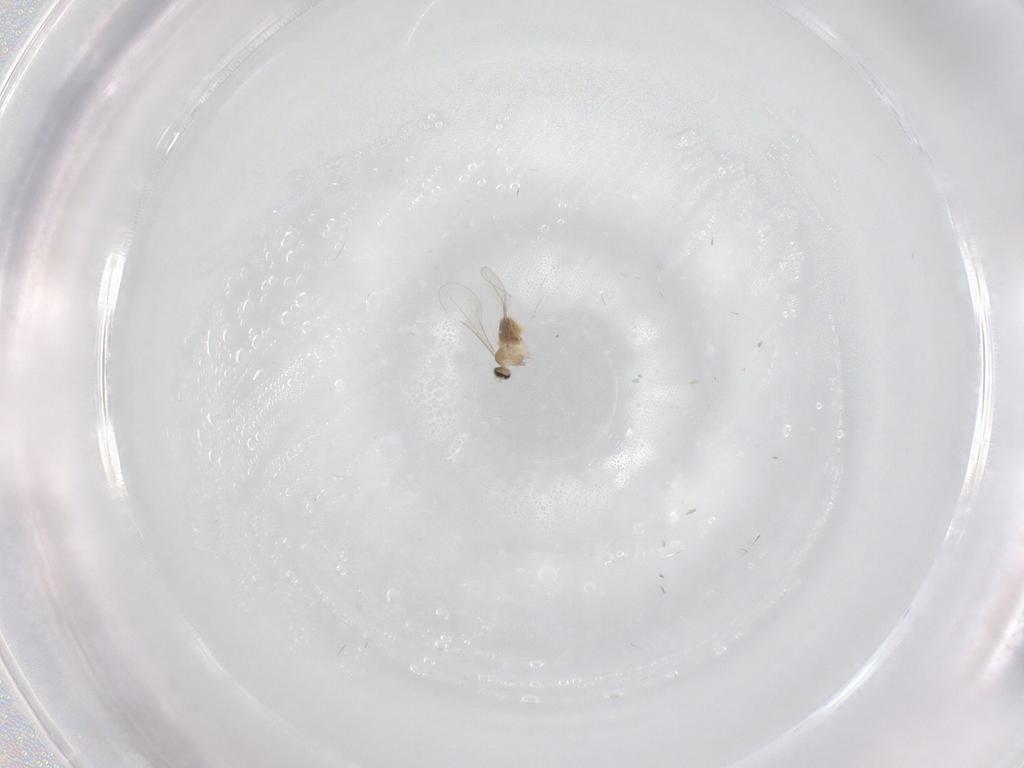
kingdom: Animalia
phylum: Arthropoda
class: Insecta
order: Diptera
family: Cecidomyiidae
